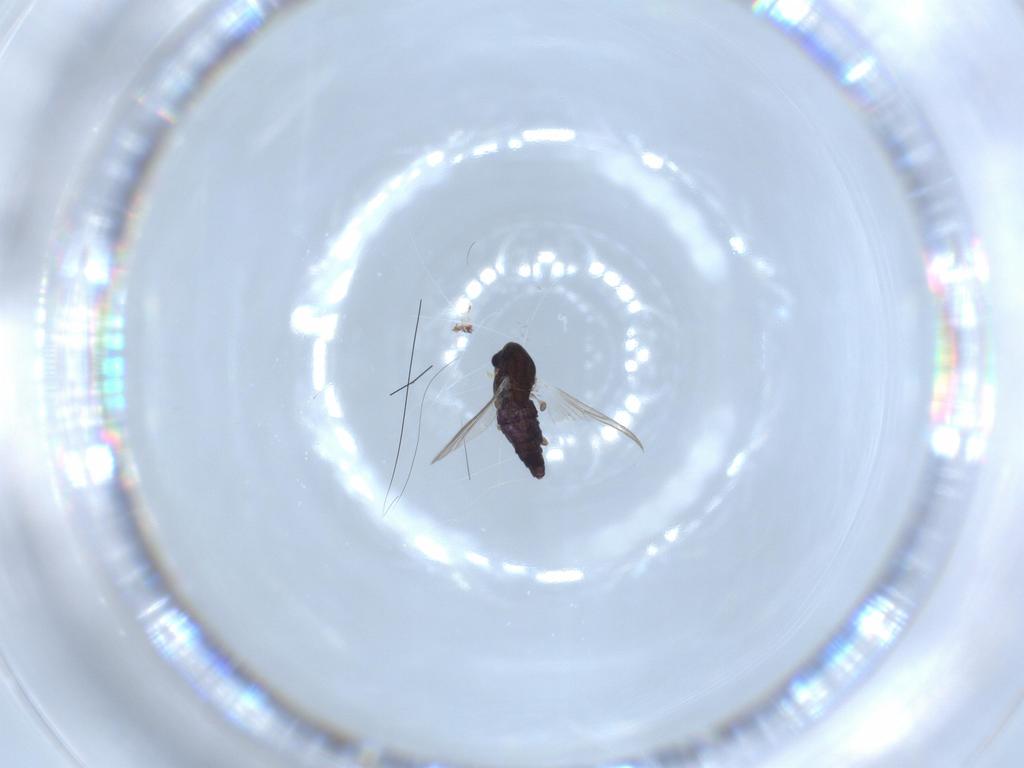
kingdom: Animalia
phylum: Arthropoda
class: Insecta
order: Diptera
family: Chironomidae
